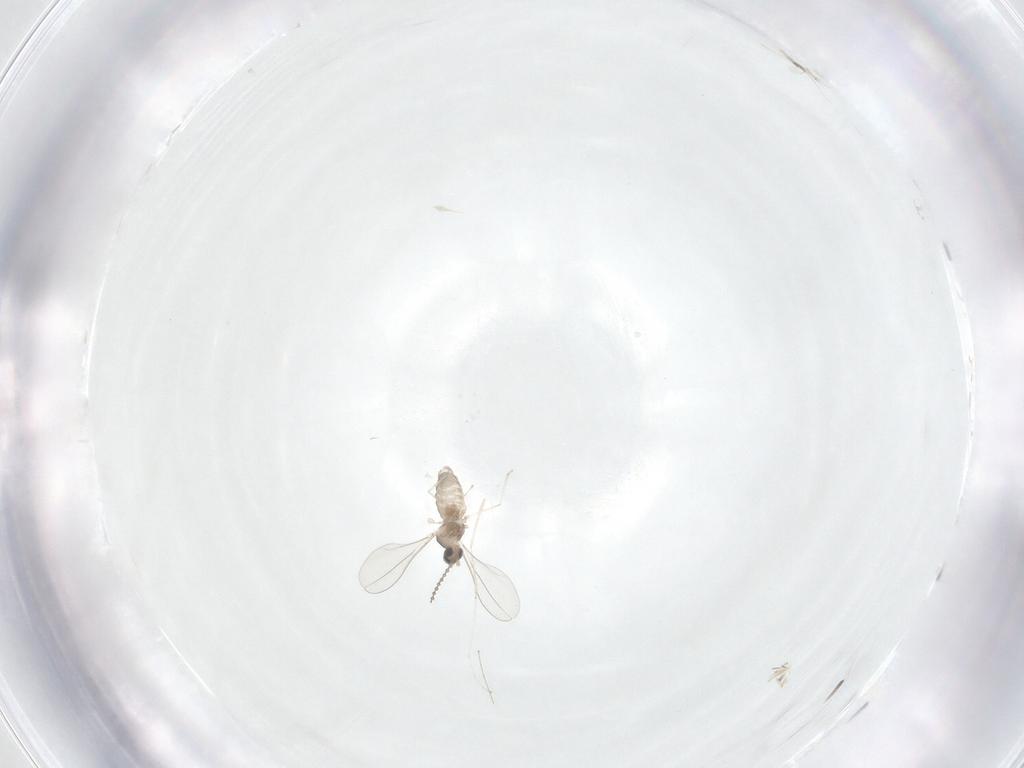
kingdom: Animalia
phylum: Arthropoda
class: Insecta
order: Diptera
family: Cecidomyiidae
